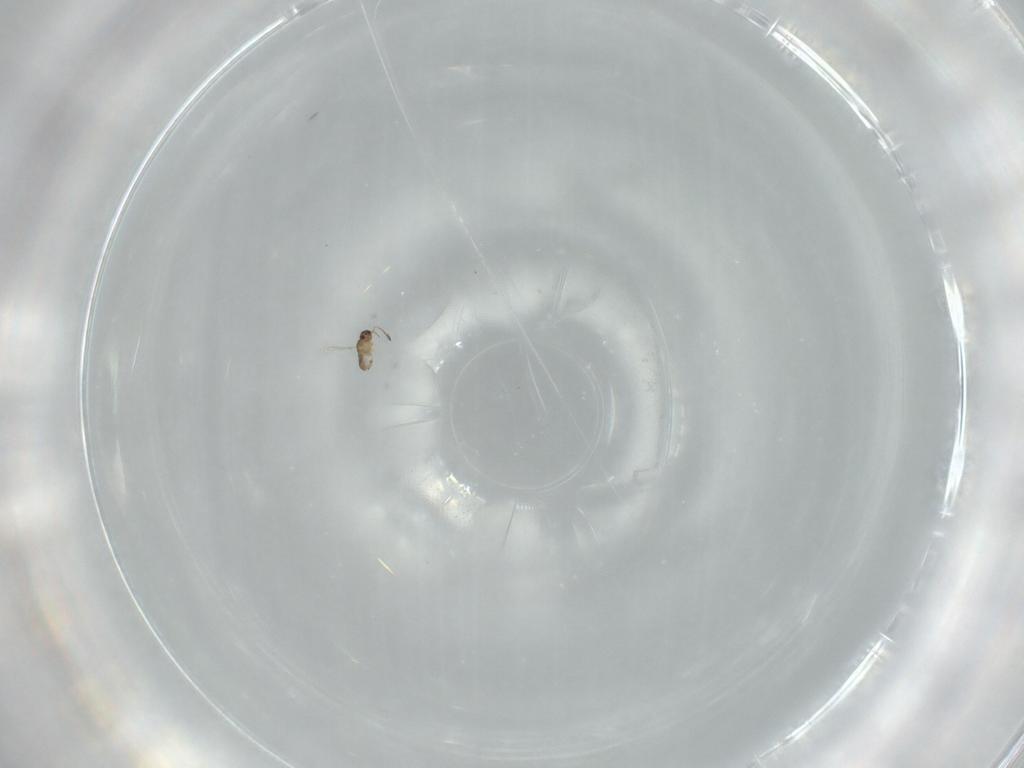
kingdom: Animalia
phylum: Arthropoda
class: Insecta
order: Hymenoptera
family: Mymaridae
